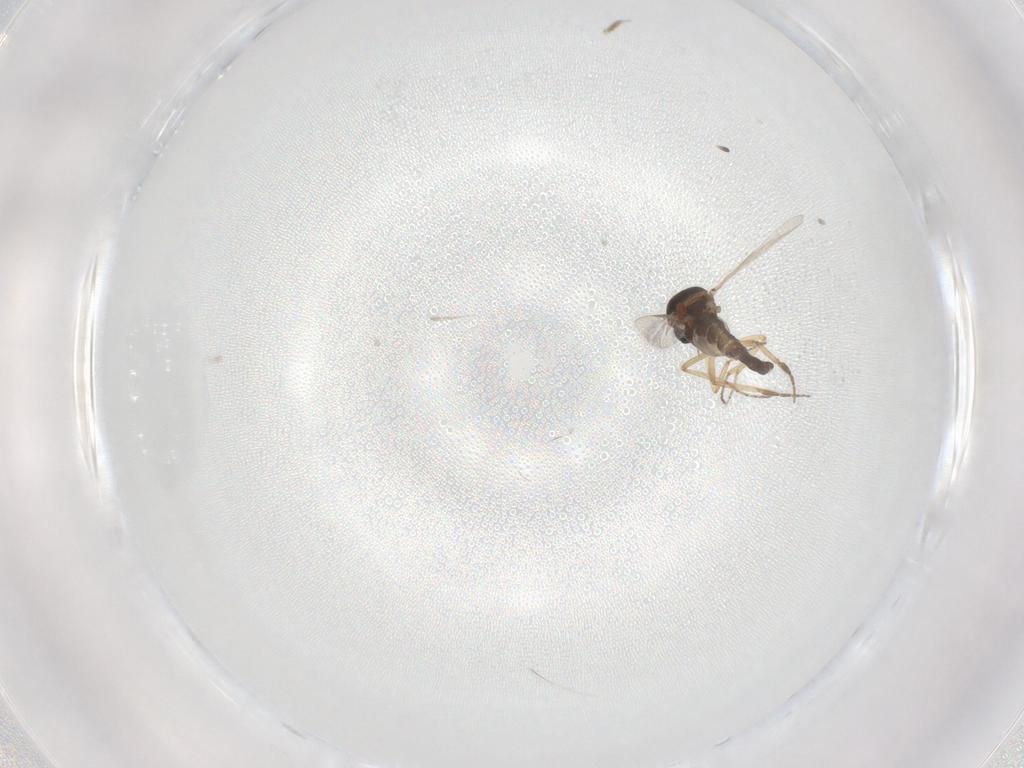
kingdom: Animalia
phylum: Arthropoda
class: Insecta
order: Diptera
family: Ceratopogonidae
